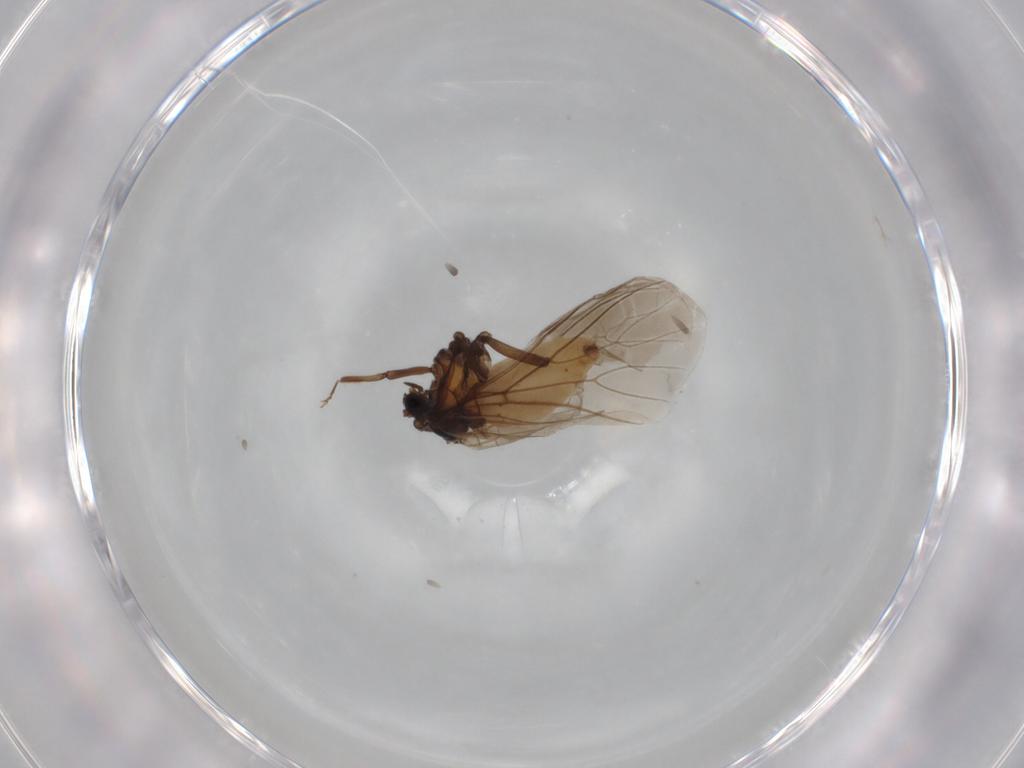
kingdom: Animalia
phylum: Arthropoda
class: Insecta
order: Neuroptera
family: Coniopterygidae
